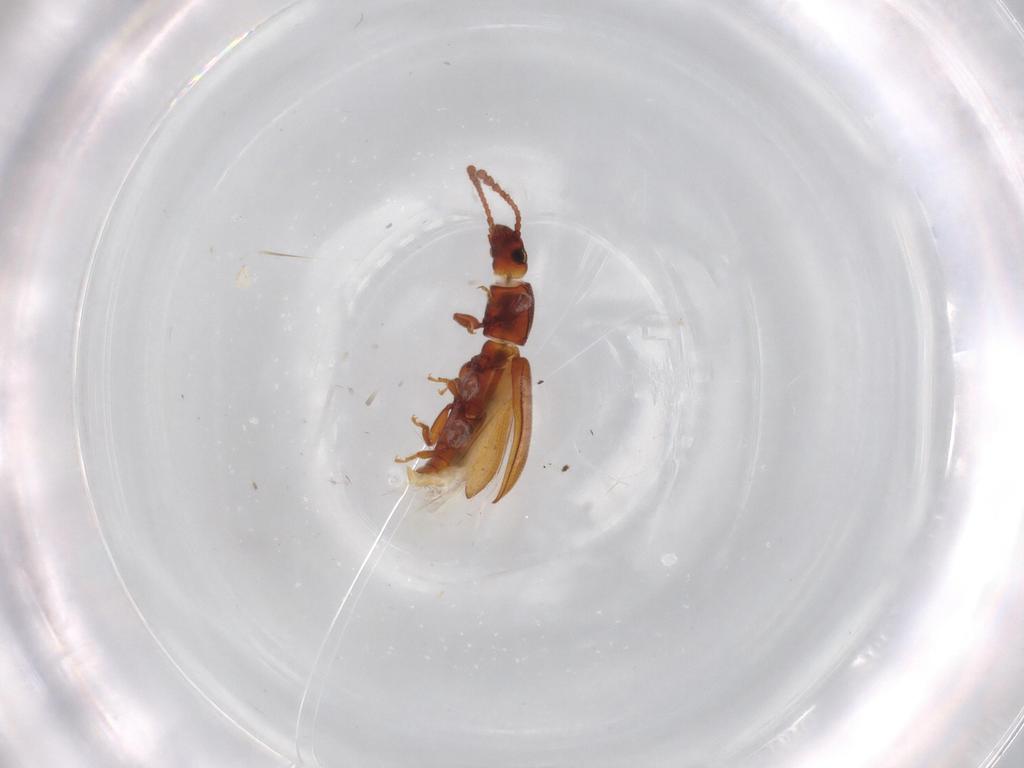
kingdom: Animalia
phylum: Arthropoda
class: Insecta
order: Coleoptera
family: Silvanidae
